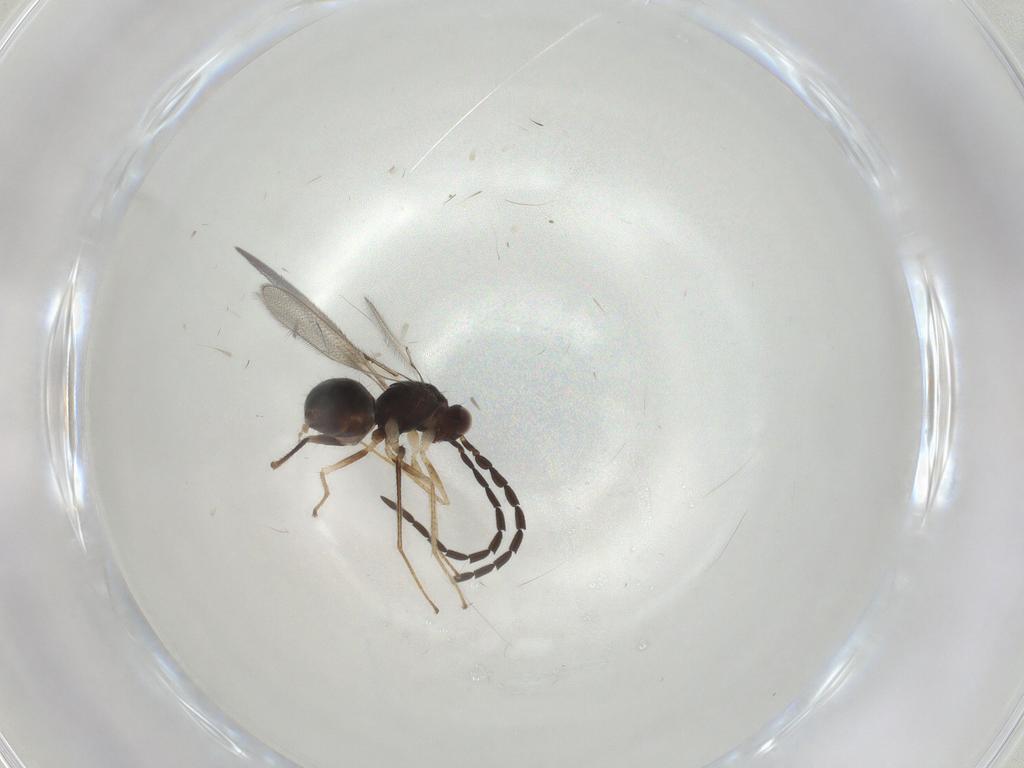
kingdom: Animalia
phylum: Arthropoda
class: Insecta
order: Hymenoptera
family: Mymaridae
